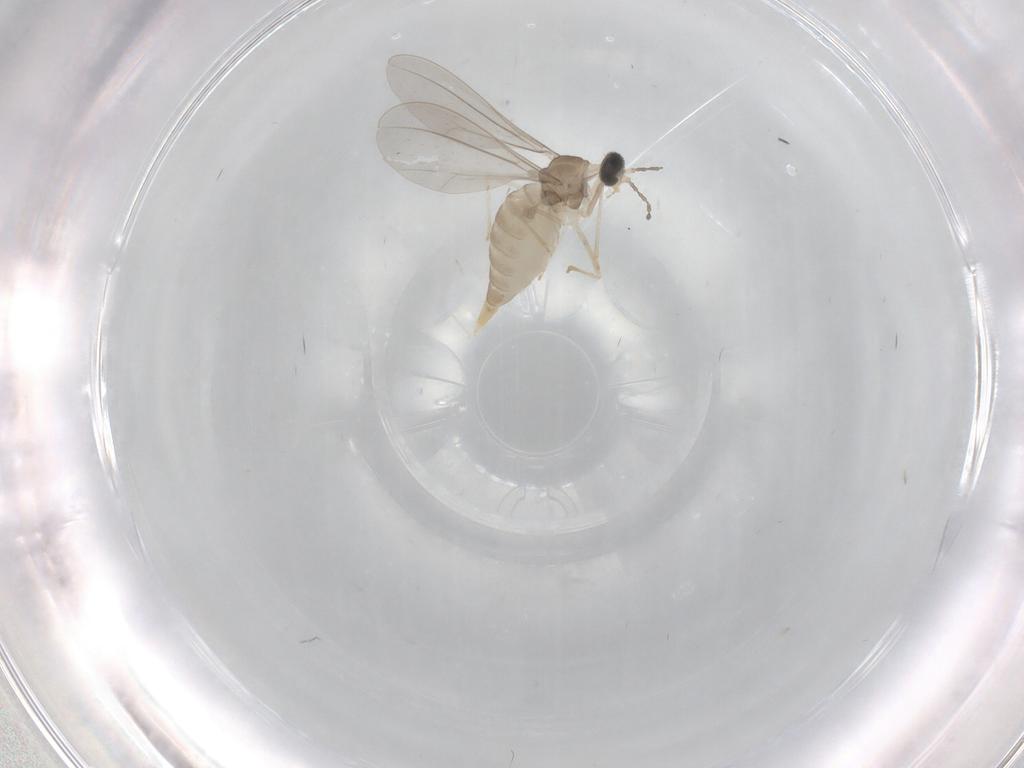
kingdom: Animalia
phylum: Arthropoda
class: Insecta
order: Diptera
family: Cecidomyiidae
